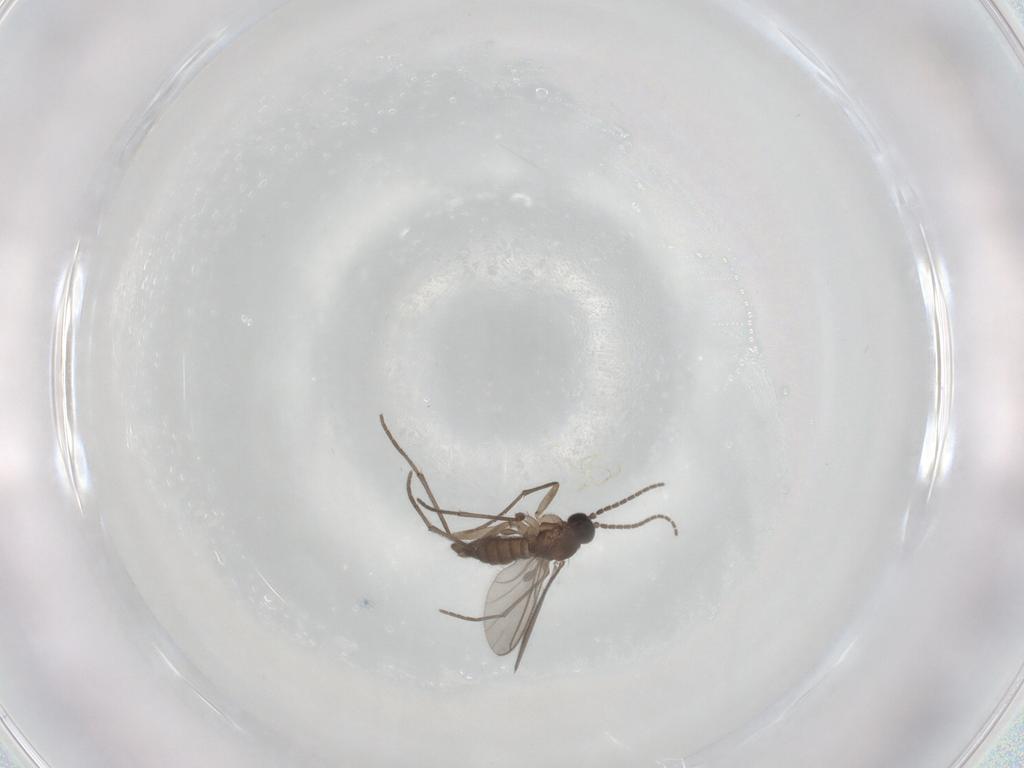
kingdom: Animalia
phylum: Arthropoda
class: Insecta
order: Diptera
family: Sciaridae
